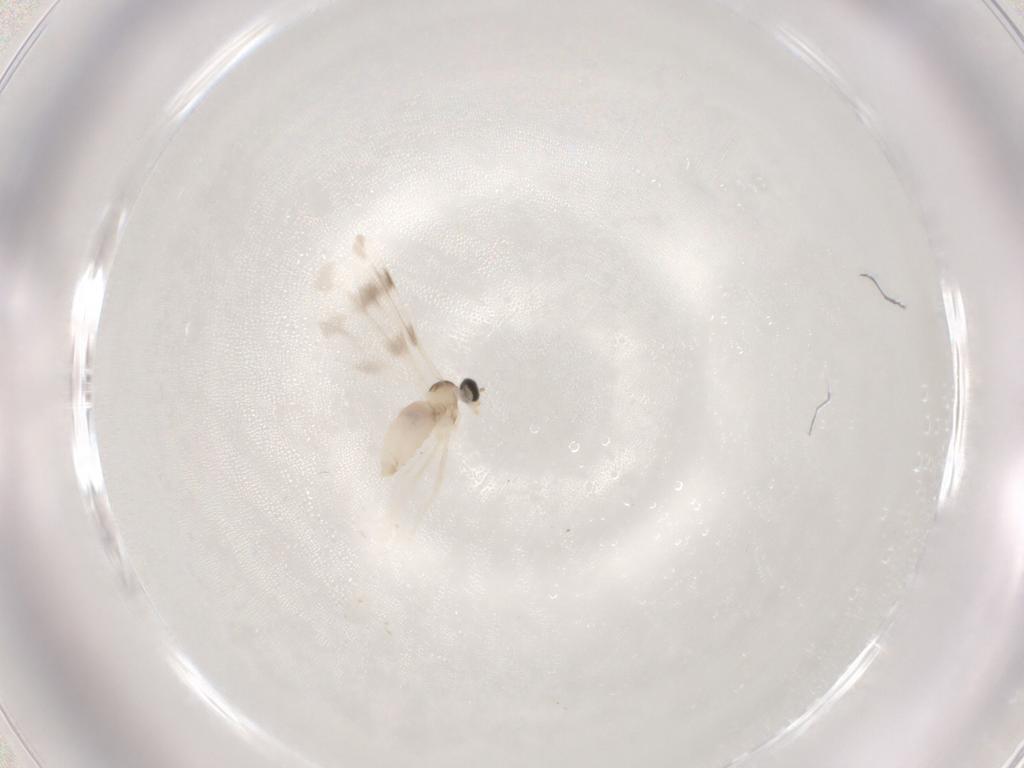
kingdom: Animalia
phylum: Arthropoda
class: Insecta
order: Diptera
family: Cecidomyiidae
